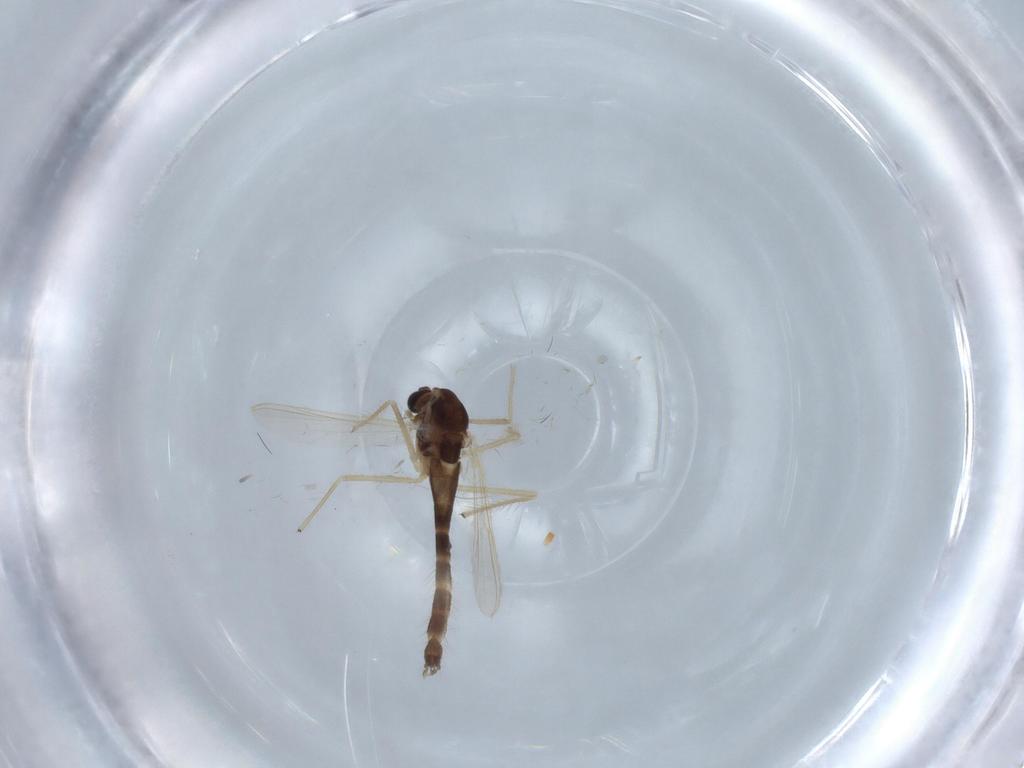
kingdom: Animalia
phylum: Arthropoda
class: Insecta
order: Diptera
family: Chironomidae
